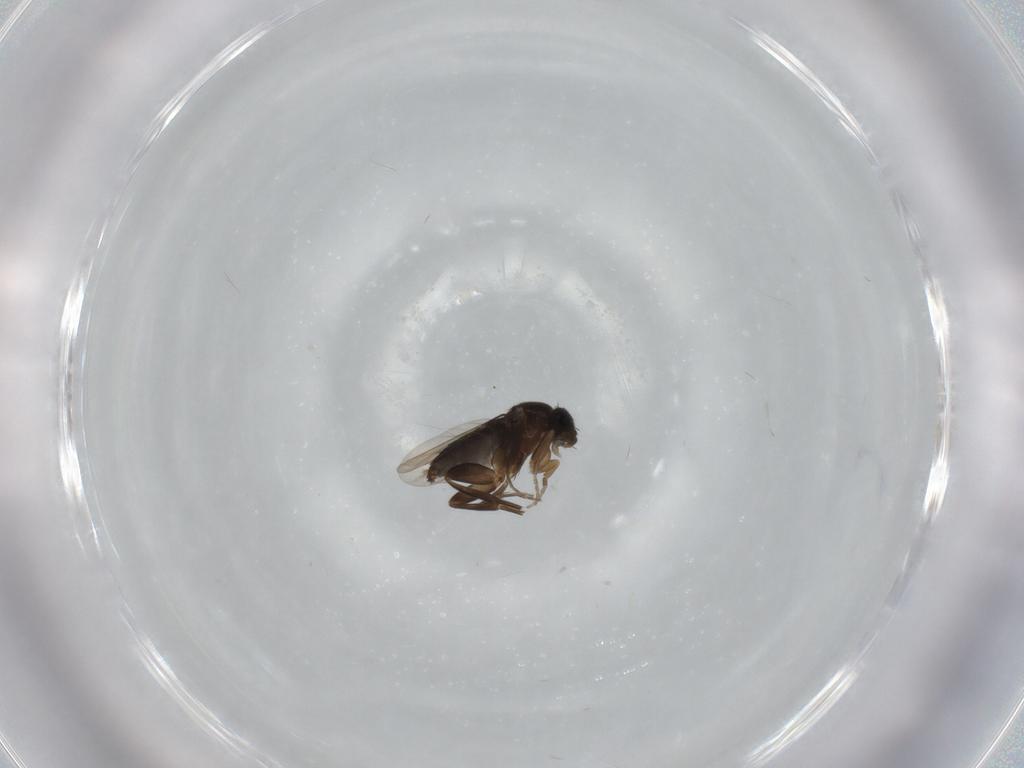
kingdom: Animalia
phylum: Arthropoda
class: Insecta
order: Diptera
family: Phoridae
